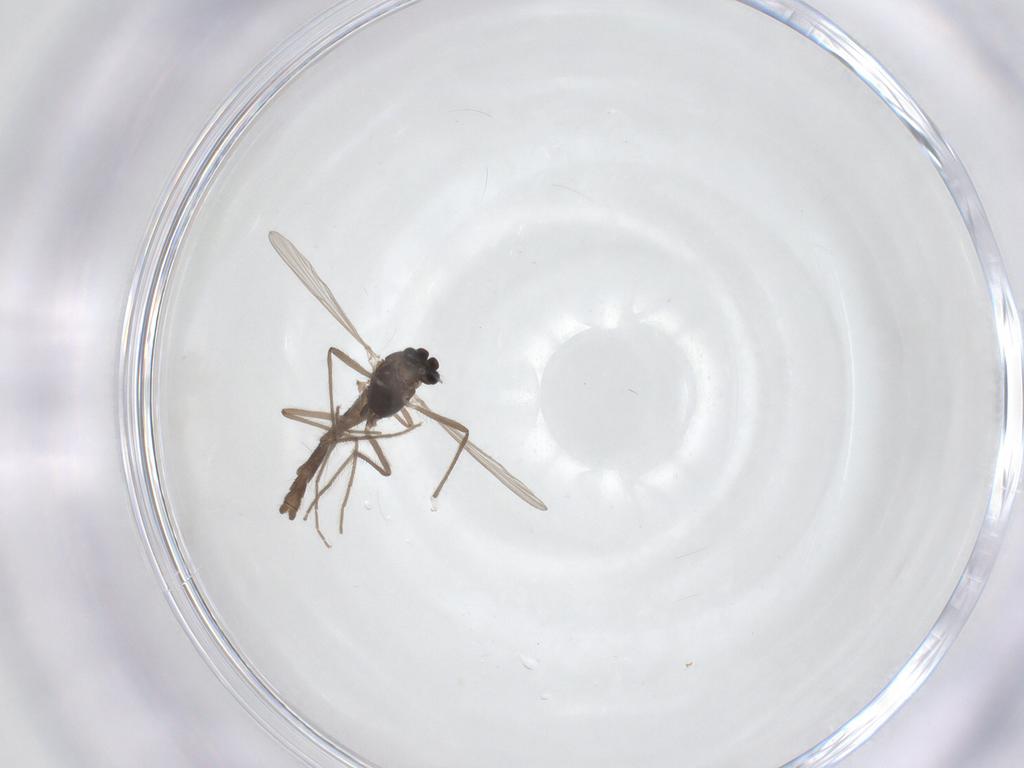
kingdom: Animalia
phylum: Arthropoda
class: Insecta
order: Diptera
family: Chironomidae
